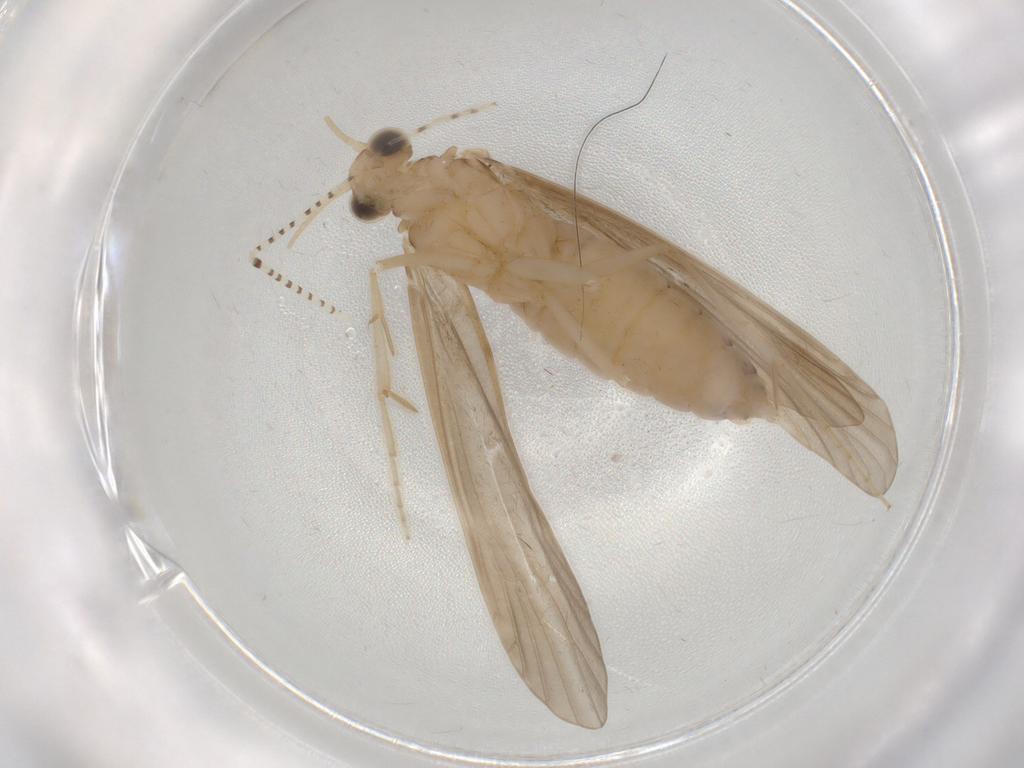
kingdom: Animalia
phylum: Arthropoda
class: Insecta
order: Trichoptera
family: Ecnomidae
